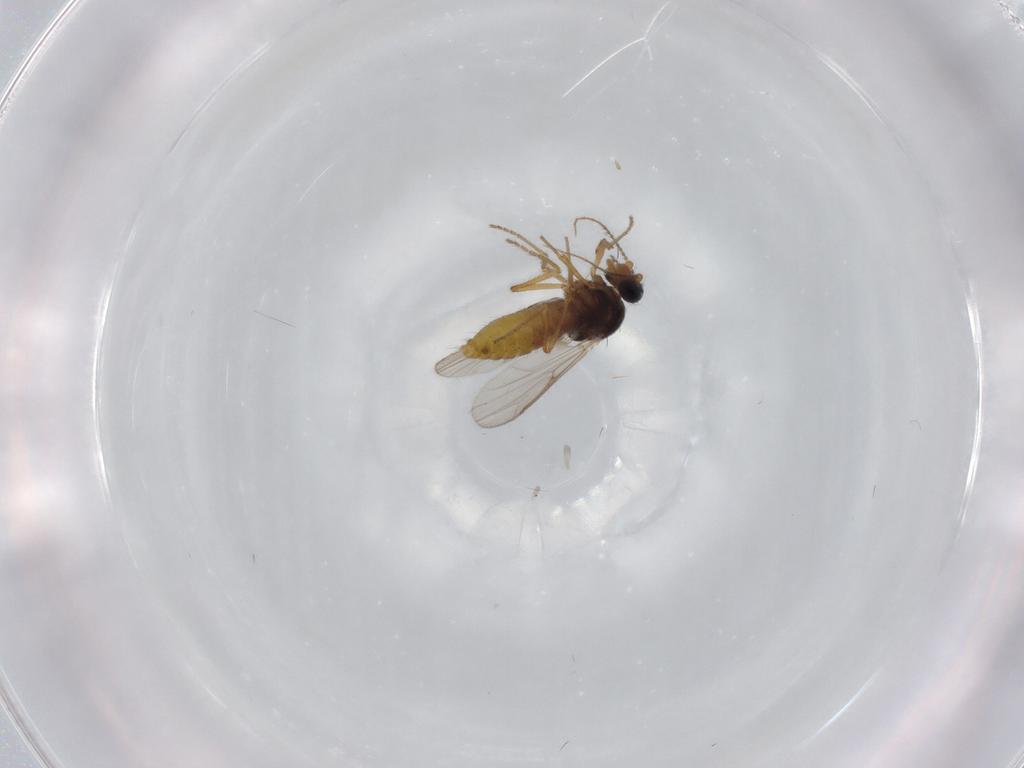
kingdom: Animalia
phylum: Arthropoda
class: Insecta
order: Diptera
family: Ceratopogonidae
